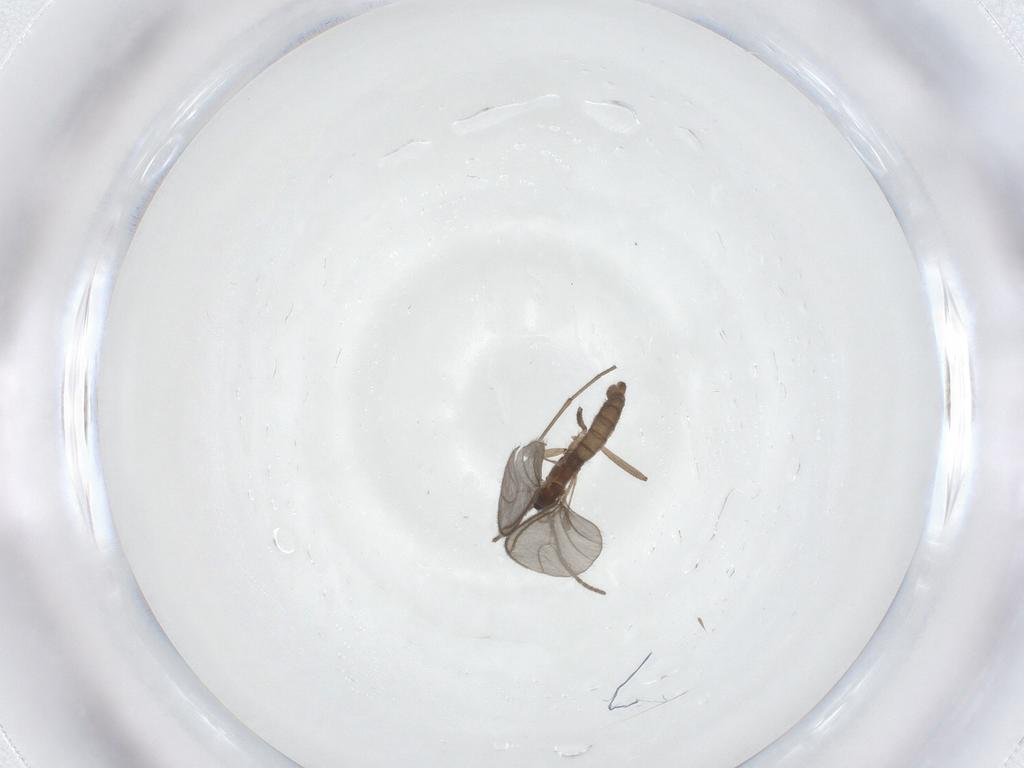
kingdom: Animalia
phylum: Arthropoda
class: Insecta
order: Diptera
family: Sciaridae
